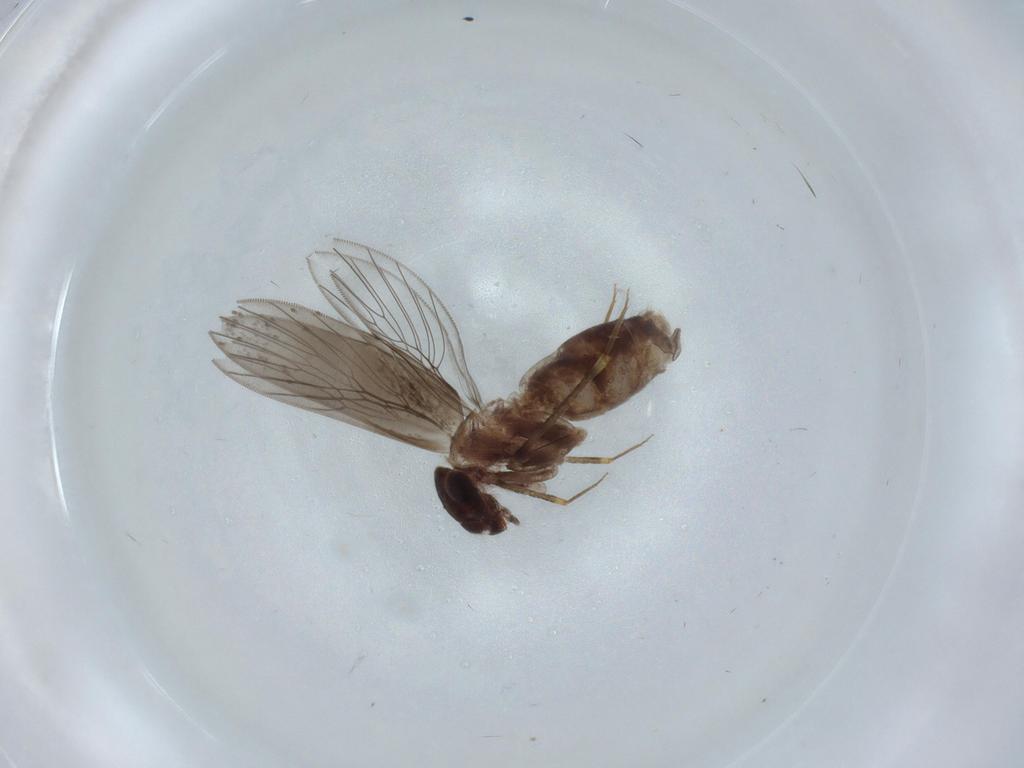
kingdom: Animalia
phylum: Arthropoda
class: Insecta
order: Psocodea
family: Lepidopsocidae
